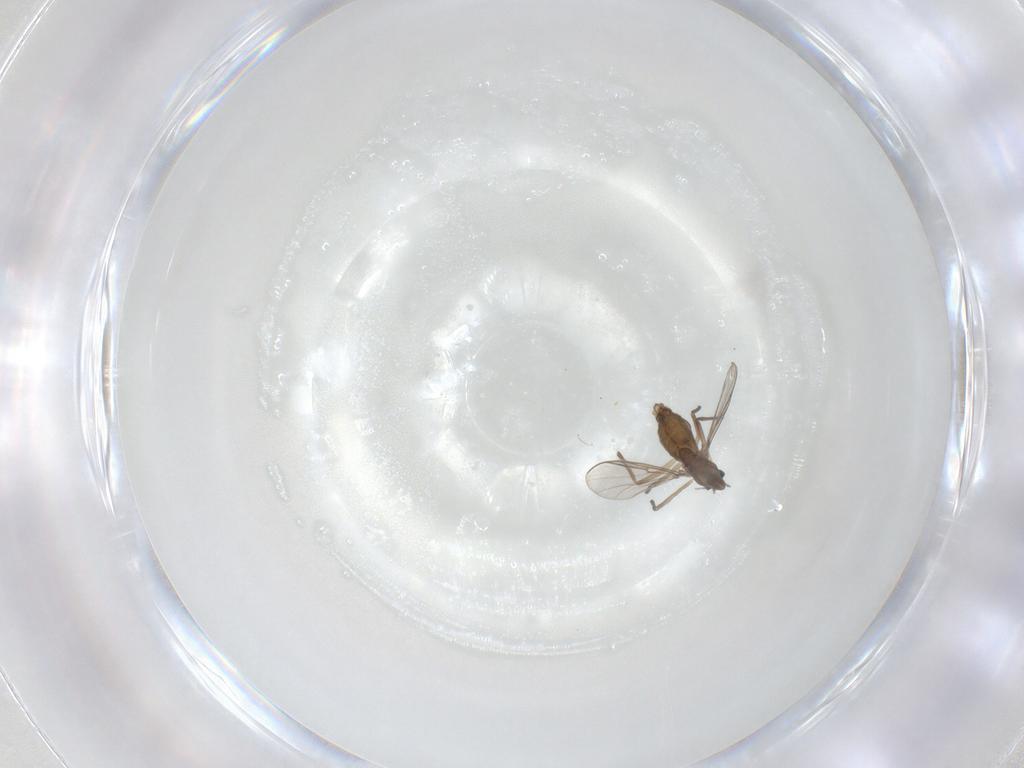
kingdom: Animalia
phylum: Arthropoda
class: Insecta
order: Diptera
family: Chironomidae
